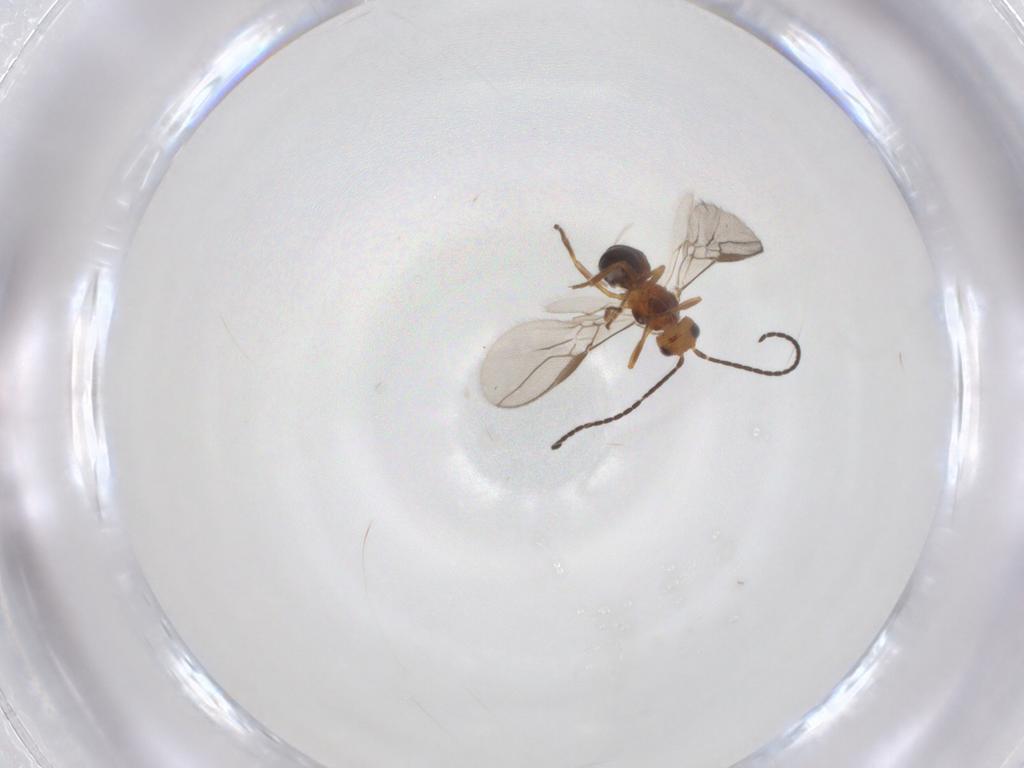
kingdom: Animalia
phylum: Arthropoda
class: Insecta
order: Hymenoptera
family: Braconidae
